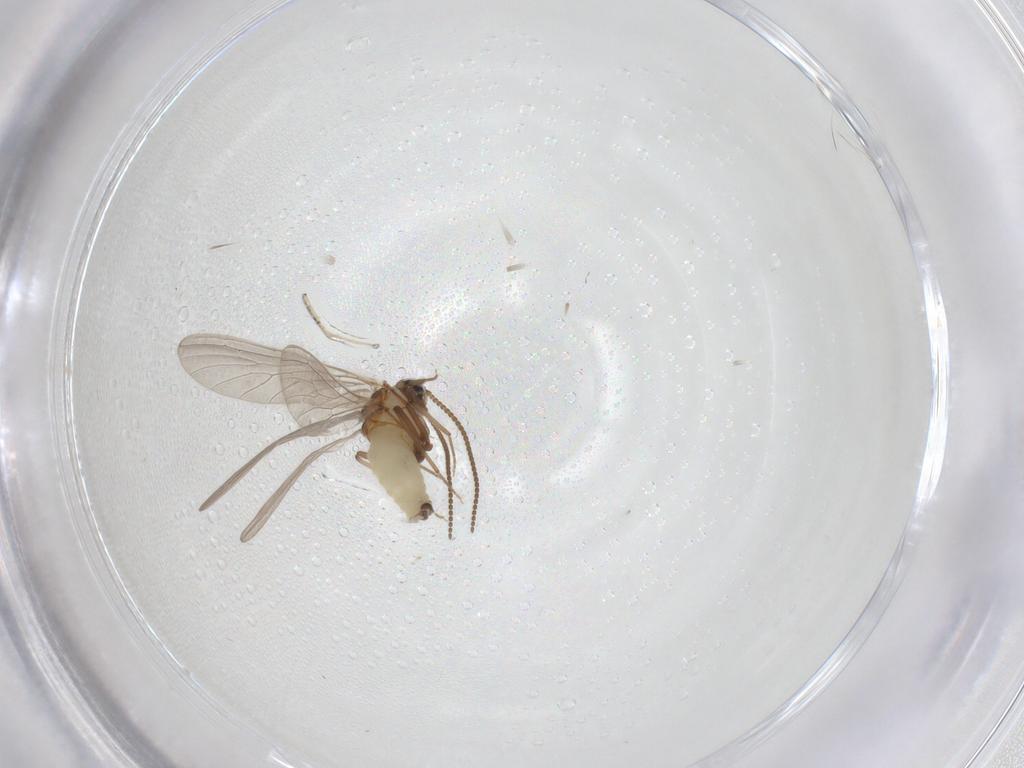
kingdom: Animalia
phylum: Arthropoda
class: Insecta
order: Neuroptera
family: Coniopterygidae
